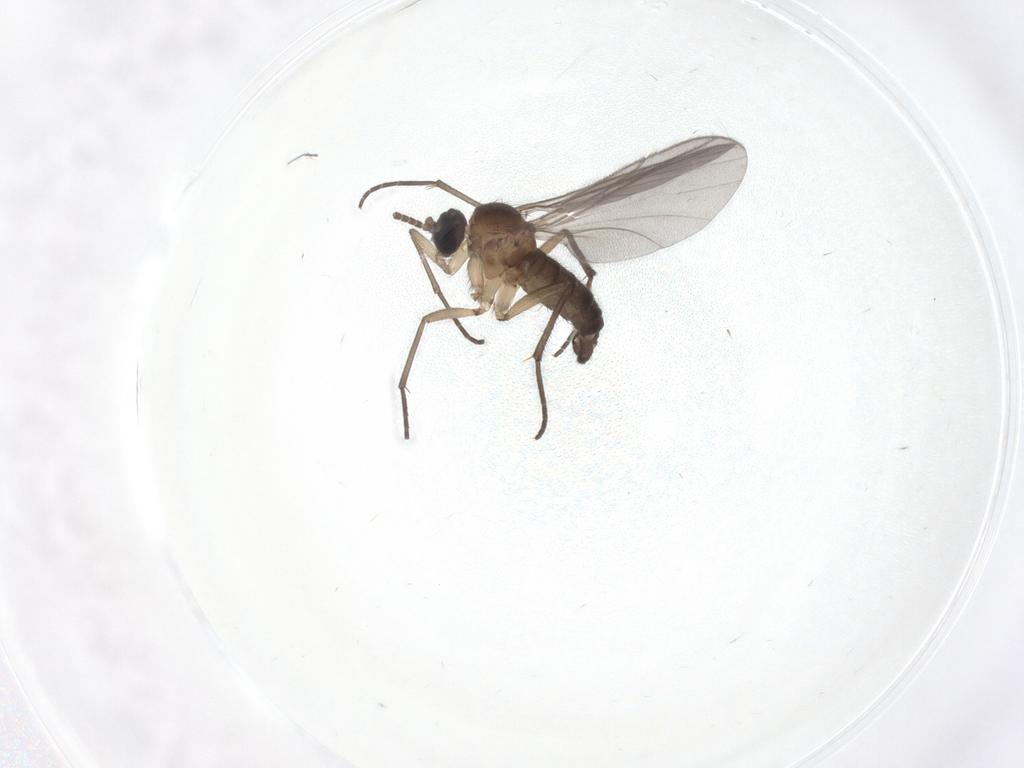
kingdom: Animalia
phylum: Arthropoda
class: Insecta
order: Diptera
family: Sciaridae
